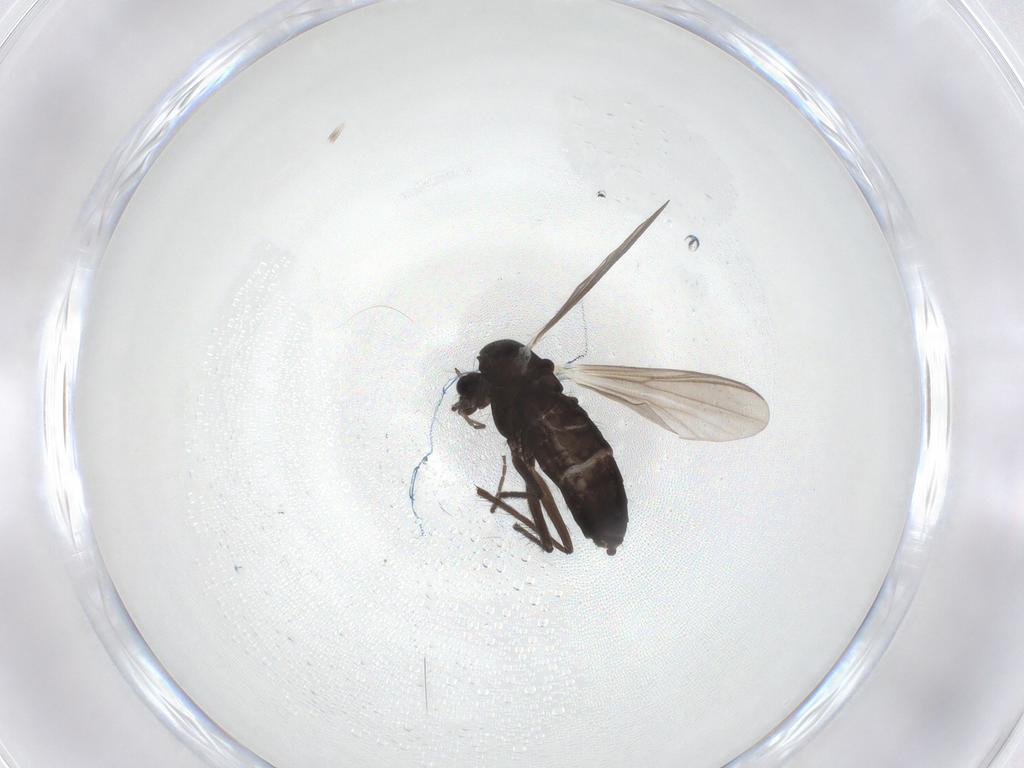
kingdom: Animalia
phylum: Arthropoda
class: Insecta
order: Diptera
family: Chironomidae
